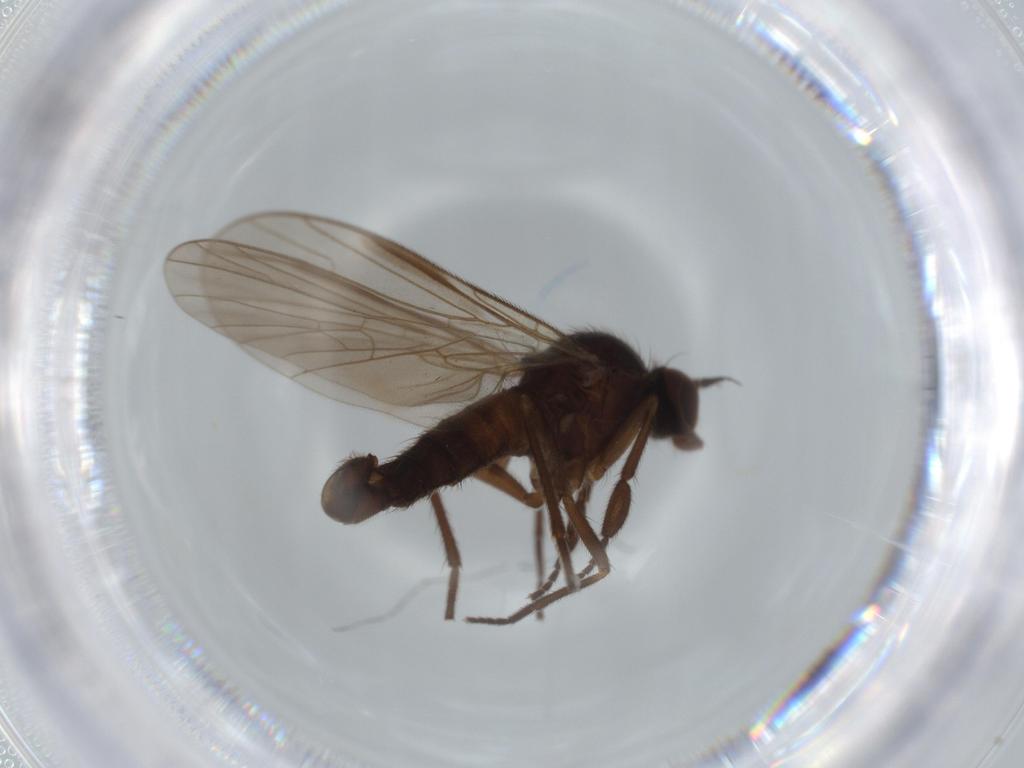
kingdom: Animalia
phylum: Arthropoda
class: Insecta
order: Diptera
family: Empididae
